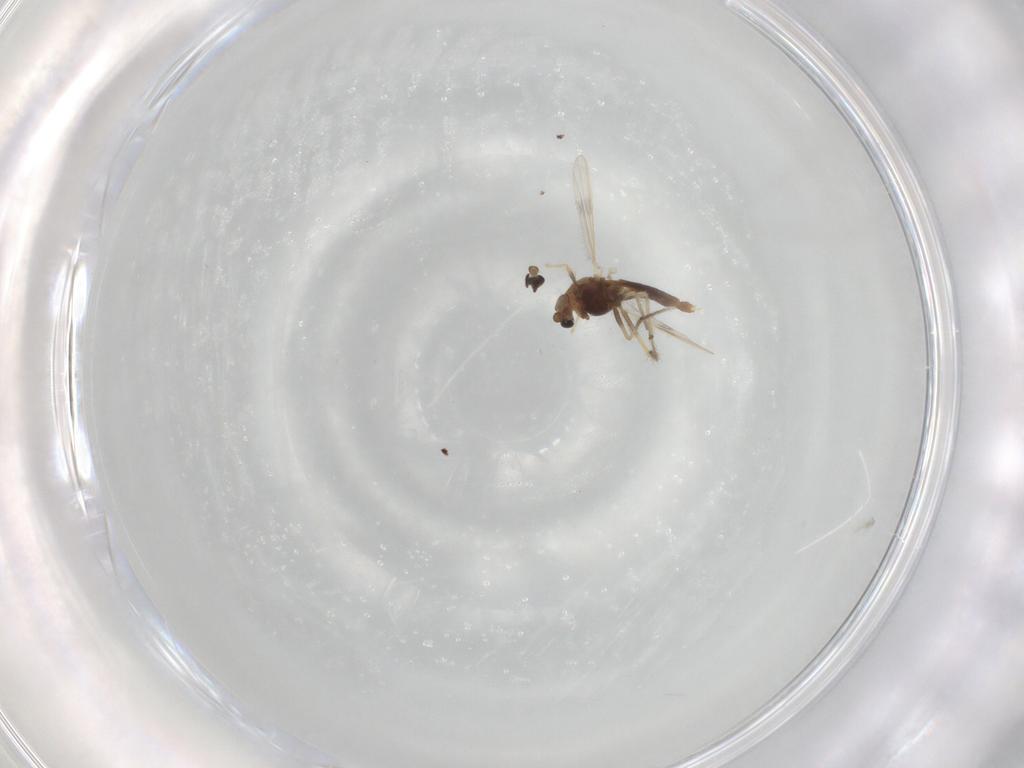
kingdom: Animalia
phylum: Arthropoda
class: Insecta
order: Diptera
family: Chironomidae
